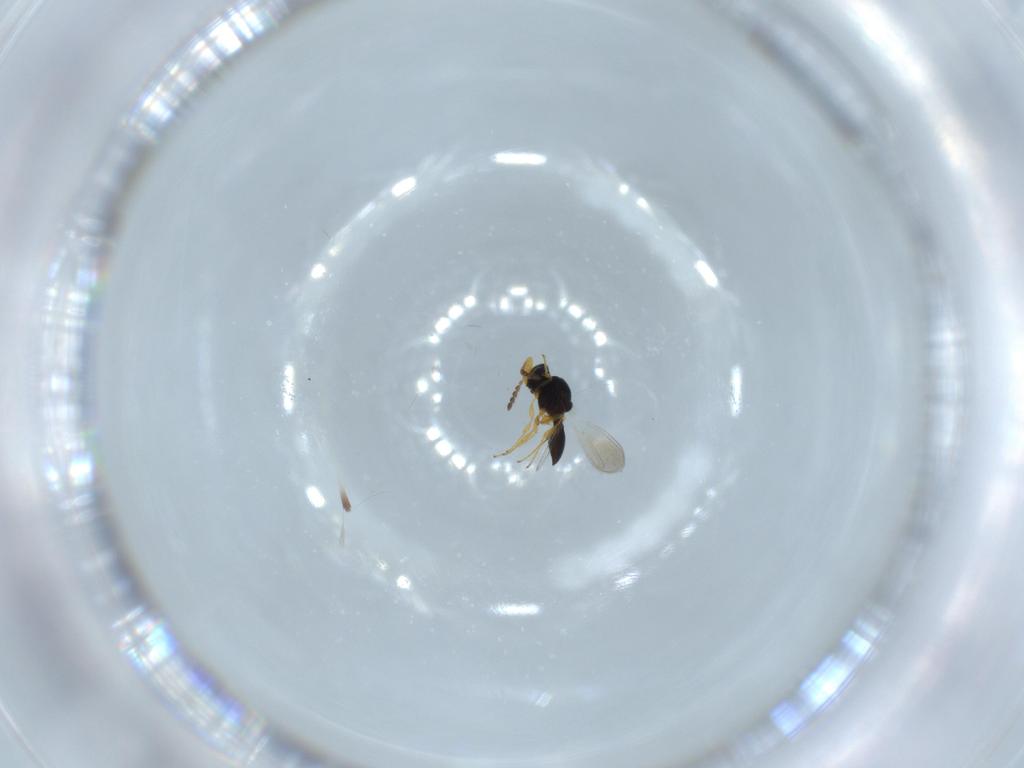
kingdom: Animalia
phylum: Arthropoda
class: Insecta
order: Hymenoptera
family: Platygastridae
